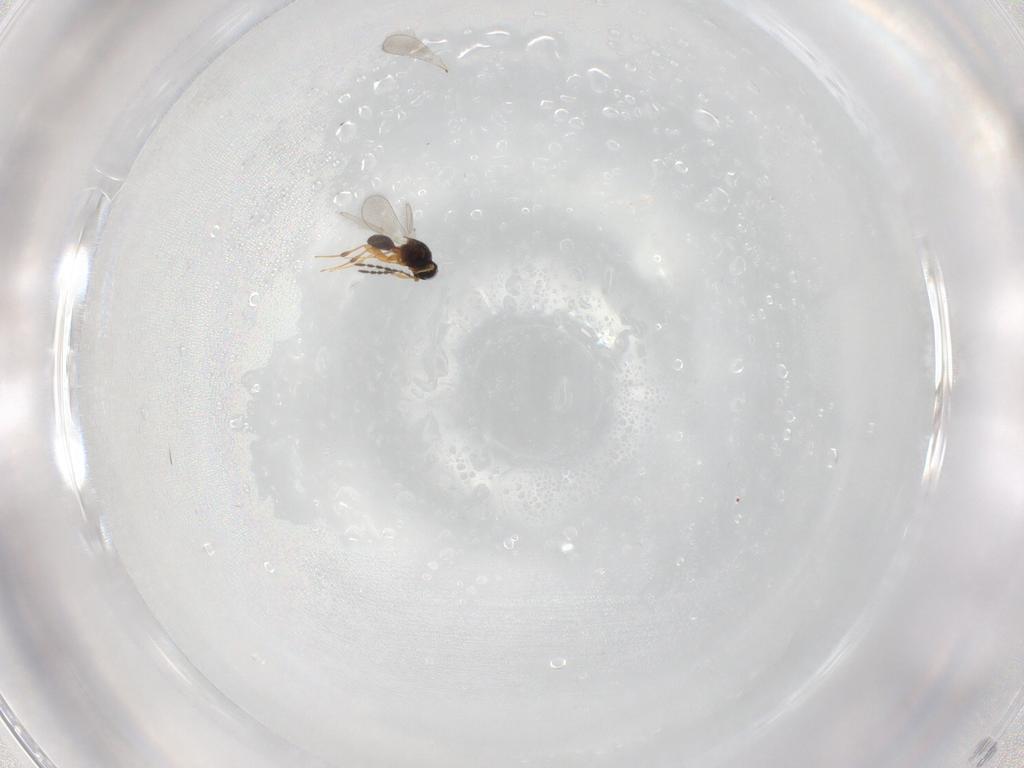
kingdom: Animalia
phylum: Arthropoda
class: Insecta
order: Hymenoptera
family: Platygastridae
